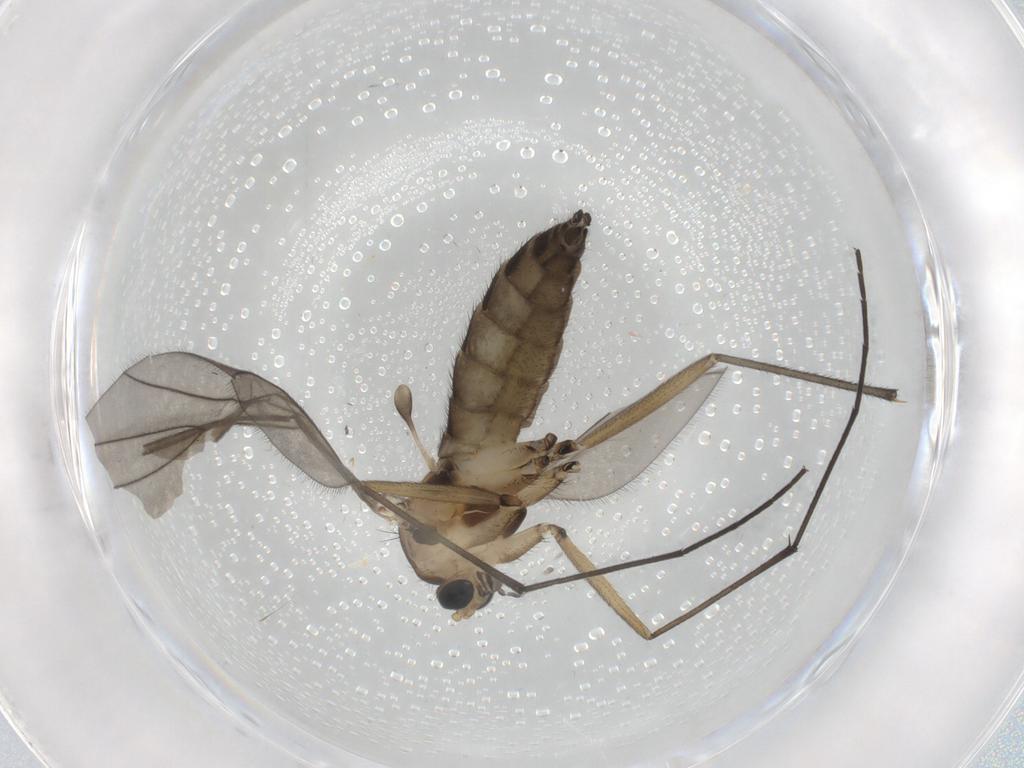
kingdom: Animalia
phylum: Arthropoda
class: Insecta
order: Diptera
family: Sciaridae
